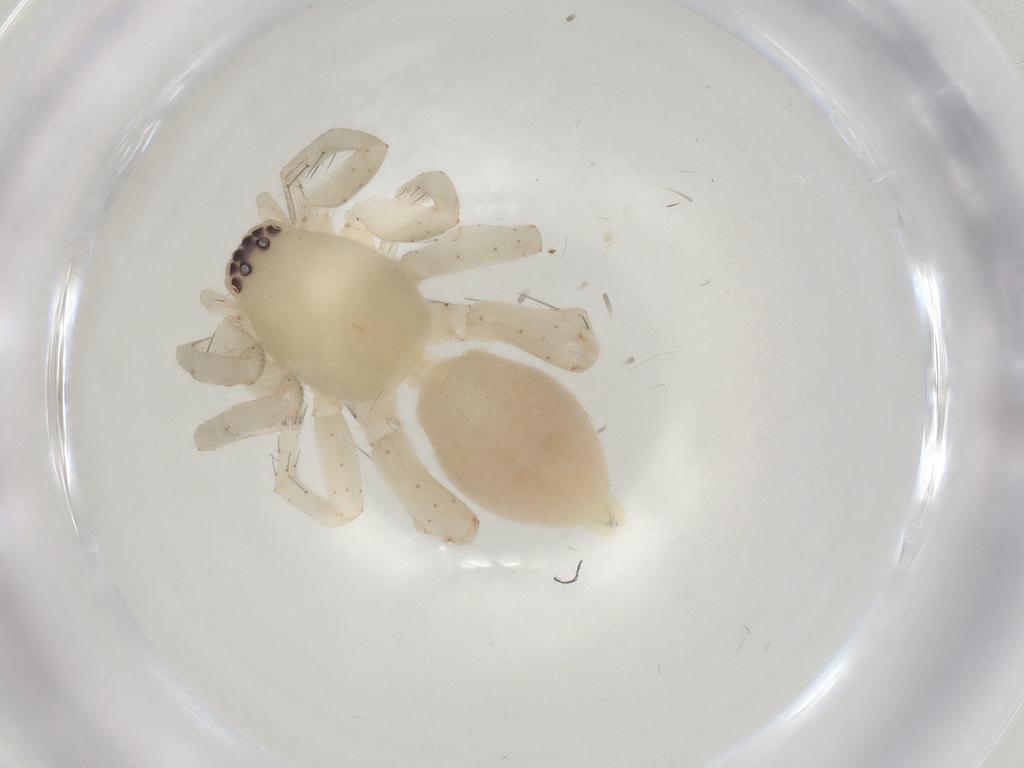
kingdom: Animalia
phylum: Arthropoda
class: Arachnida
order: Araneae
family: Clubionidae
